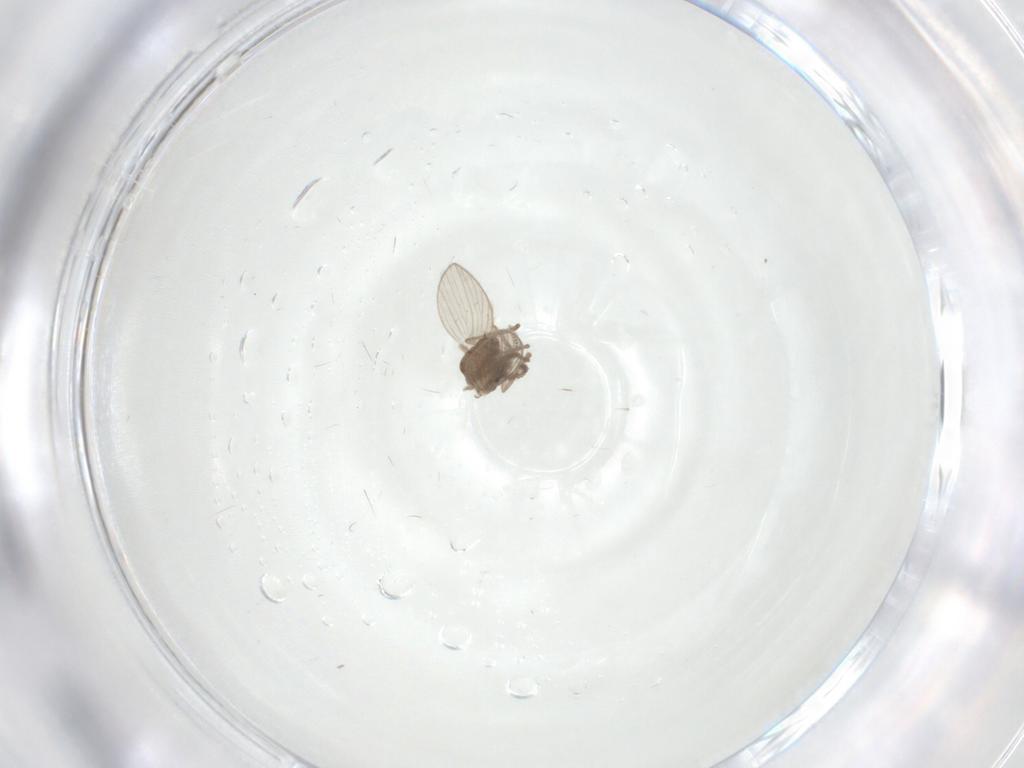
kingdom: Animalia
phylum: Arthropoda
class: Insecta
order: Diptera
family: Psychodidae
